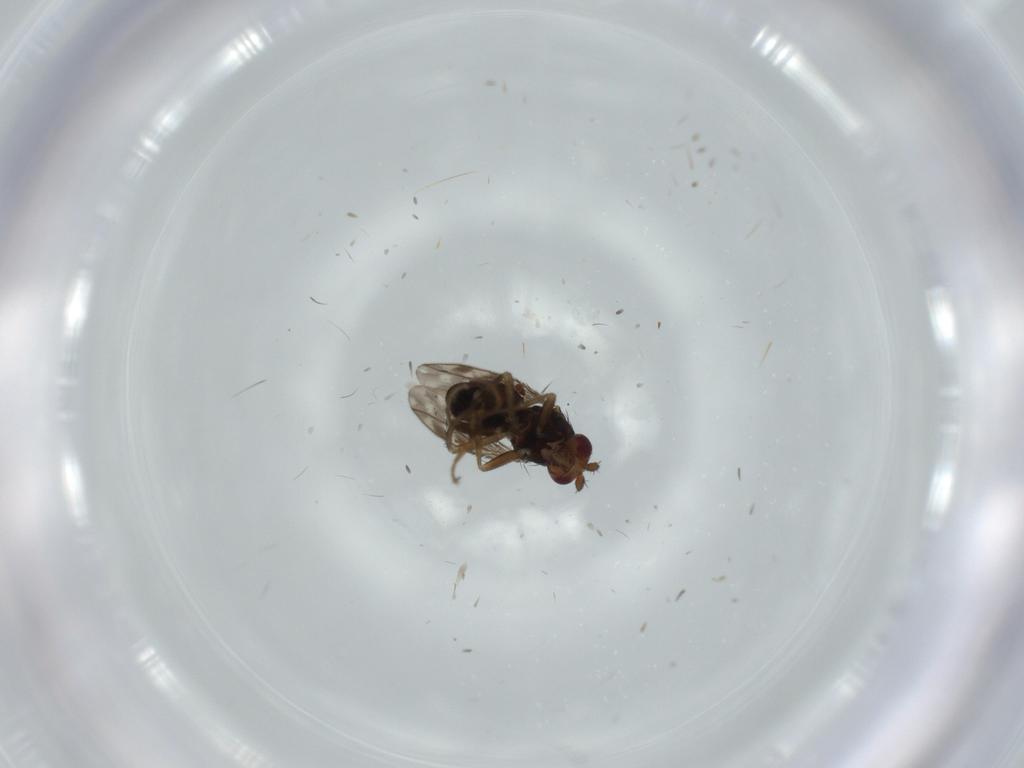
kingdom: Animalia
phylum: Arthropoda
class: Insecta
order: Diptera
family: Sphaeroceridae
